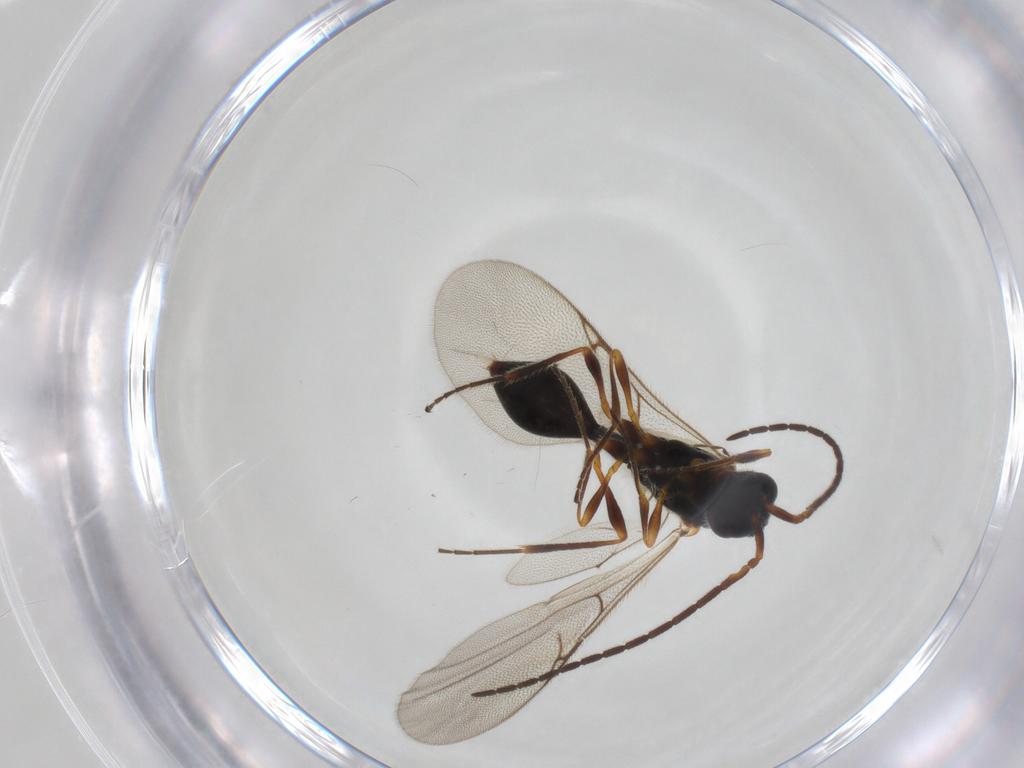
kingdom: Animalia
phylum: Arthropoda
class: Insecta
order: Hymenoptera
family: Diapriidae
